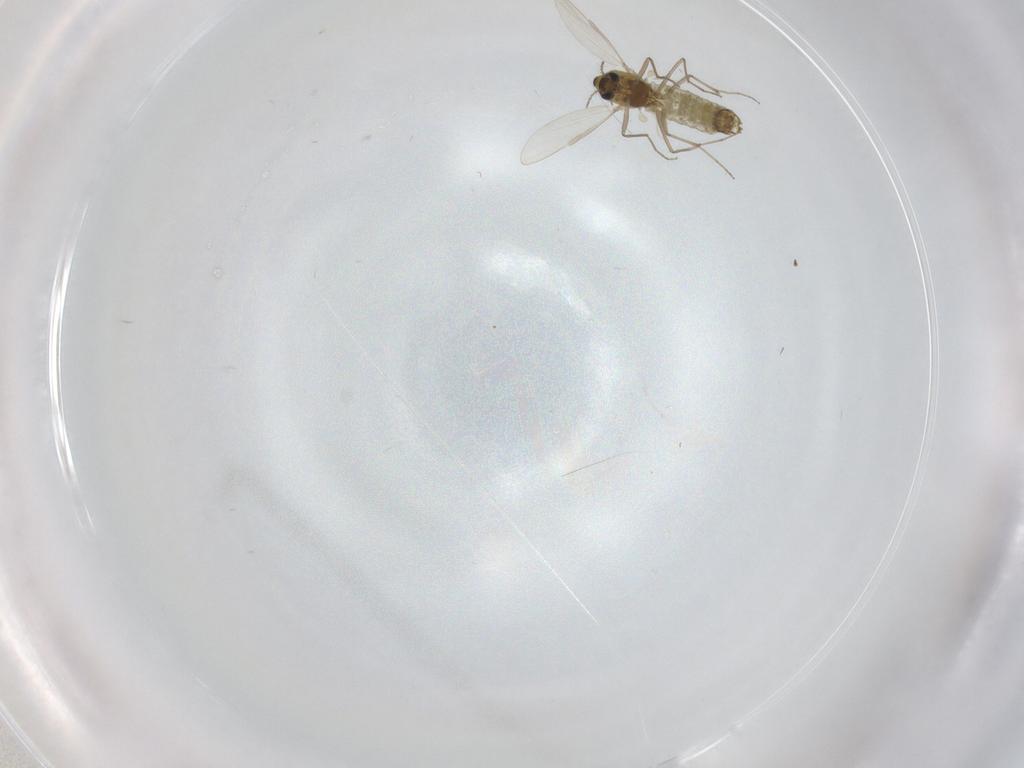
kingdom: Animalia
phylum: Arthropoda
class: Insecta
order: Diptera
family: Chironomidae
